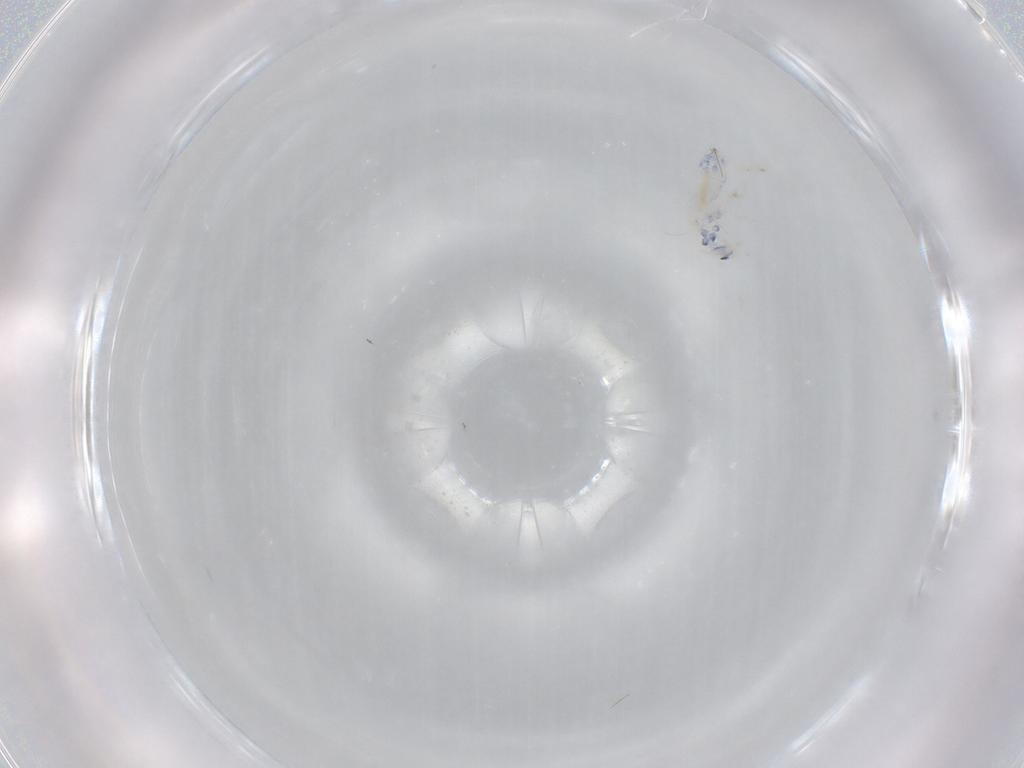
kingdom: Animalia
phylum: Arthropoda
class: Collembola
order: Entomobryomorpha
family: Entomobryidae
